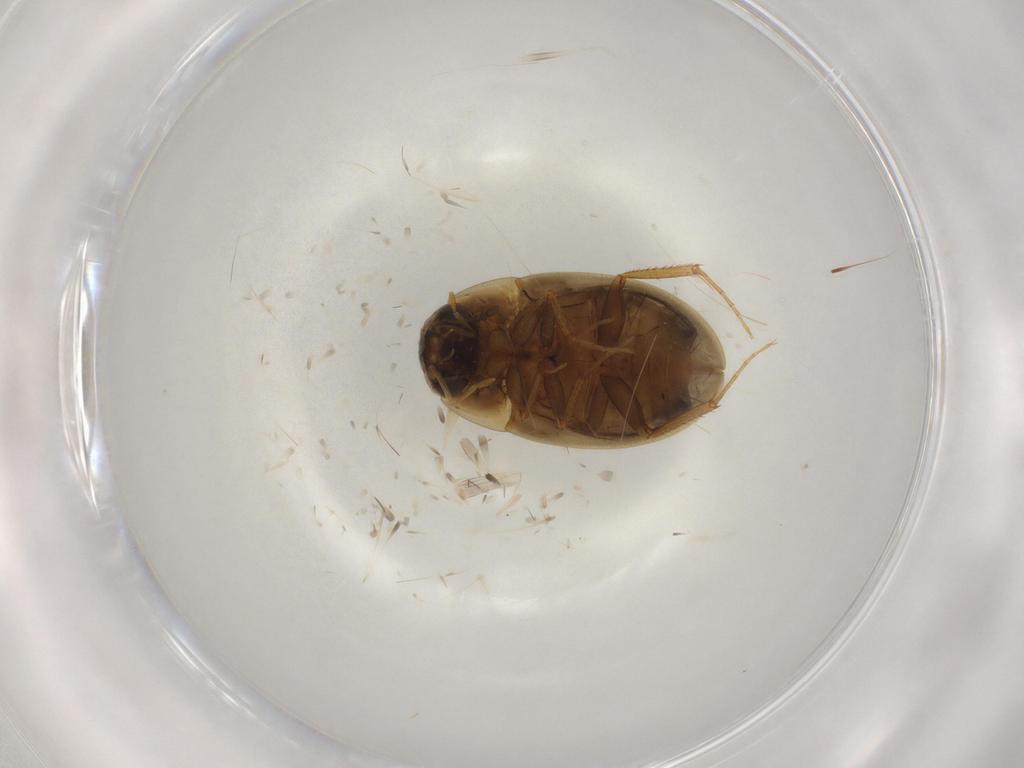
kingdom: Animalia
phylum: Arthropoda
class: Insecta
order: Coleoptera
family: Hydrophilidae
